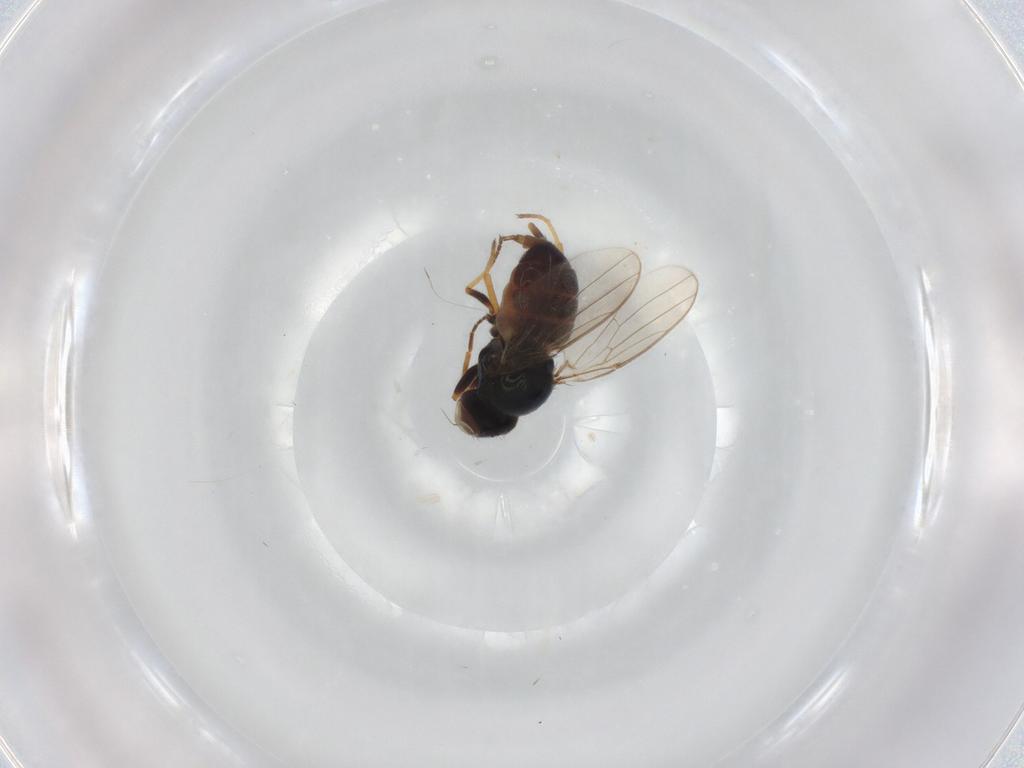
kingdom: Animalia
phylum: Arthropoda
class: Insecta
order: Diptera
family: Chloropidae
